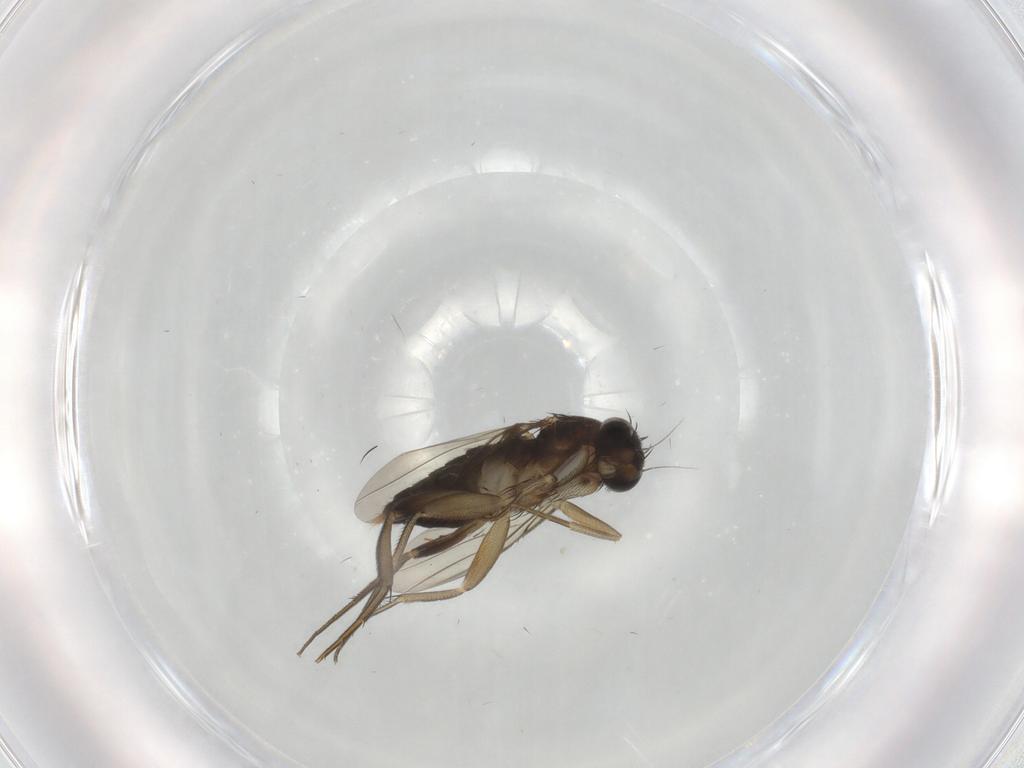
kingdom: Animalia
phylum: Arthropoda
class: Insecta
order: Diptera
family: Phoridae
